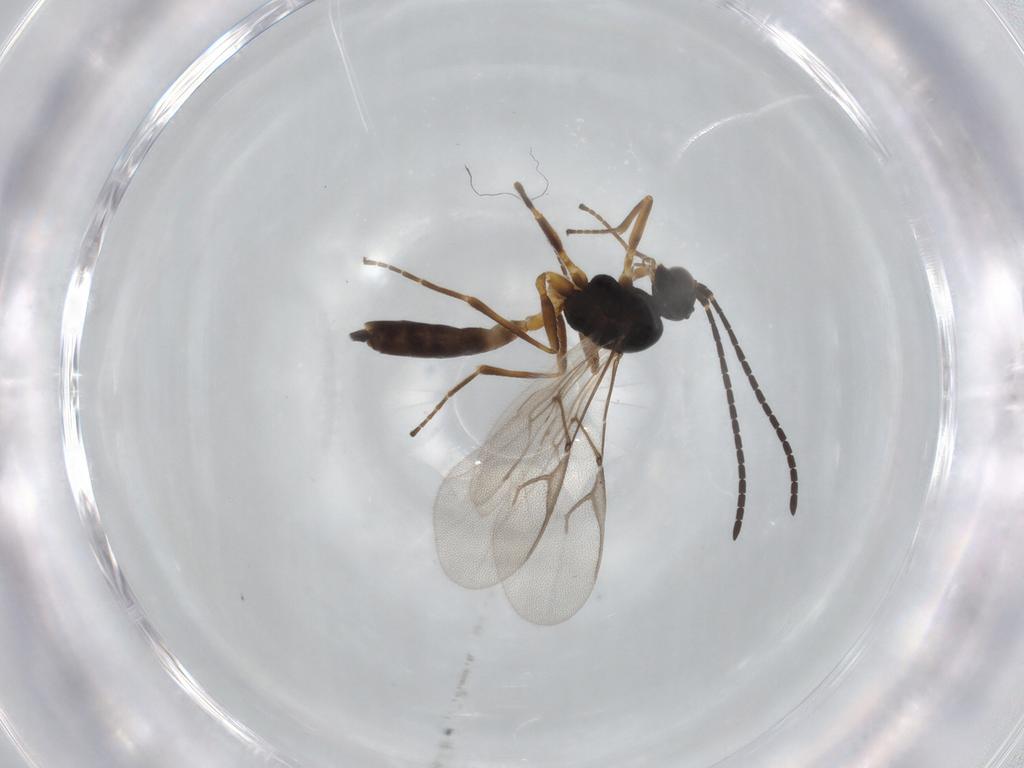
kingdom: Animalia
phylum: Arthropoda
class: Insecta
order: Hymenoptera
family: Braconidae
